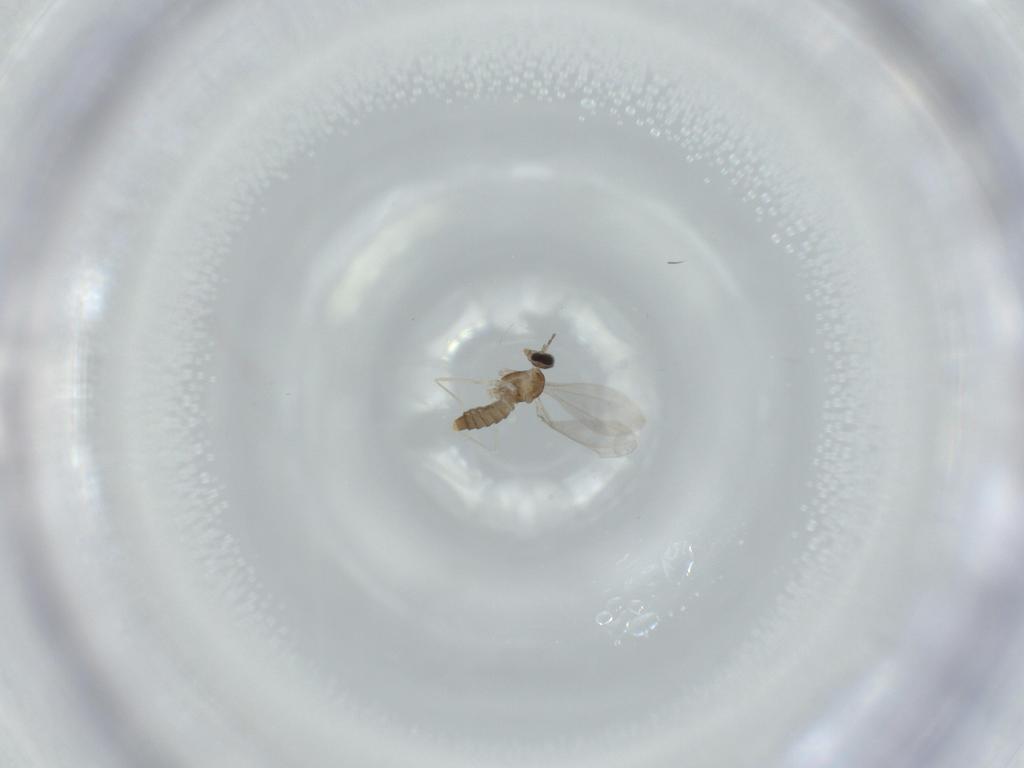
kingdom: Animalia
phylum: Arthropoda
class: Insecta
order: Diptera
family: Cecidomyiidae
